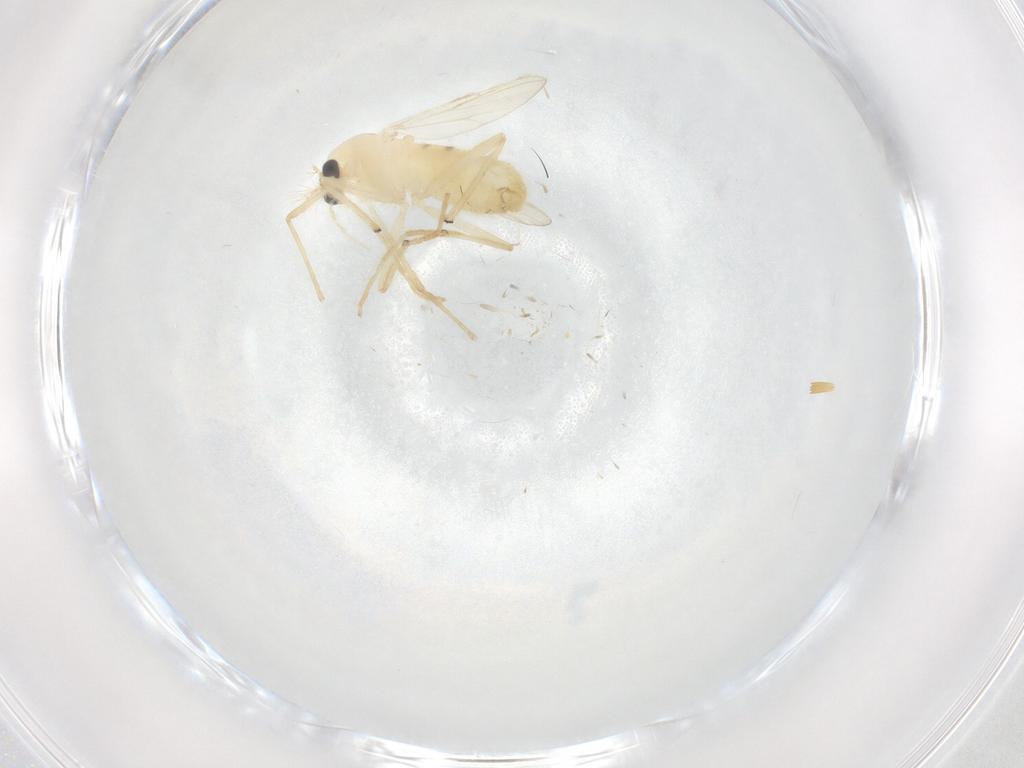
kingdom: Animalia
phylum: Arthropoda
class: Insecta
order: Diptera
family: Chironomidae
